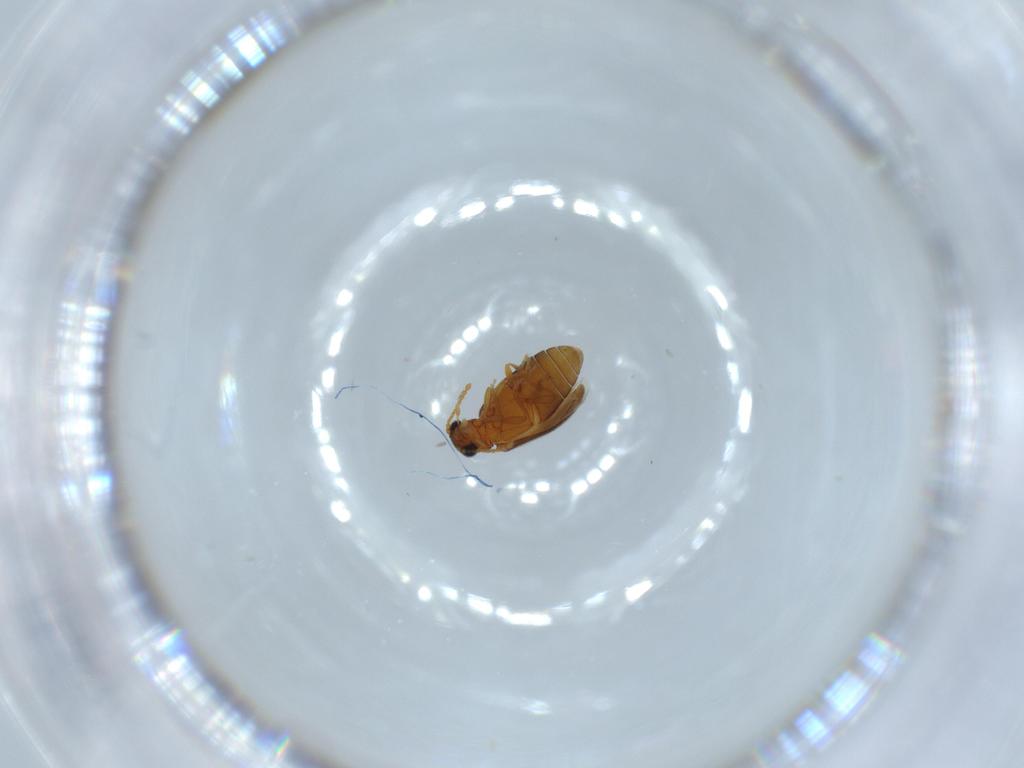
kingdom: Animalia
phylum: Arthropoda
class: Insecta
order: Coleoptera
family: Aderidae
